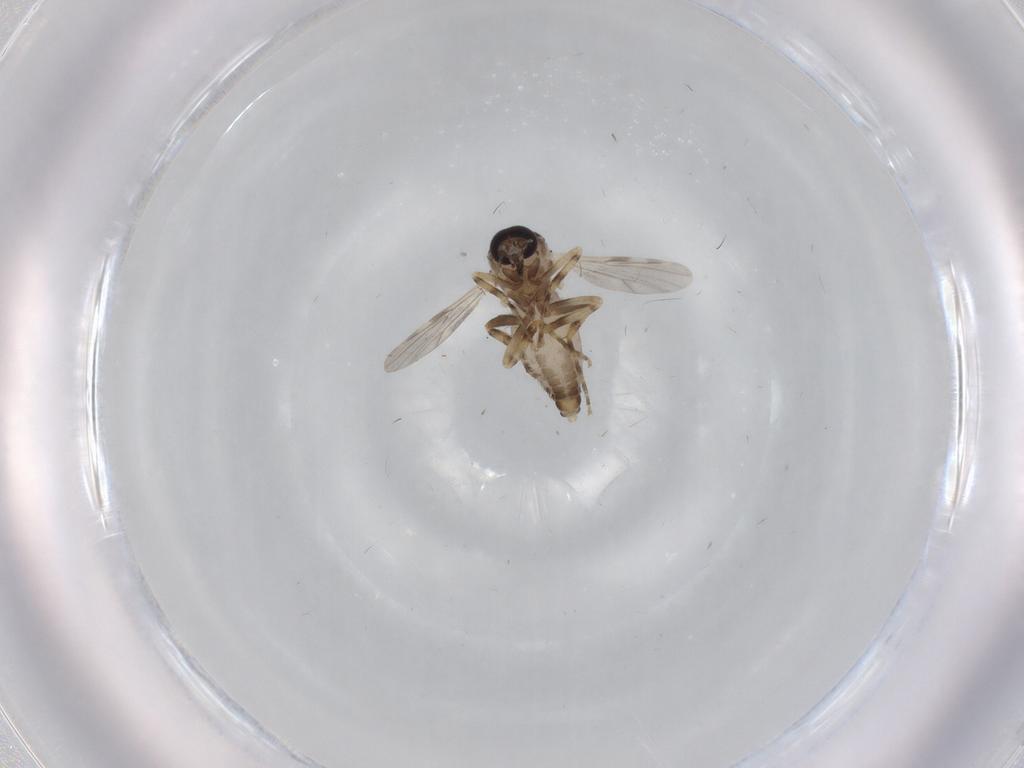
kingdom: Animalia
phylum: Arthropoda
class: Insecta
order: Diptera
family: Ceratopogonidae
